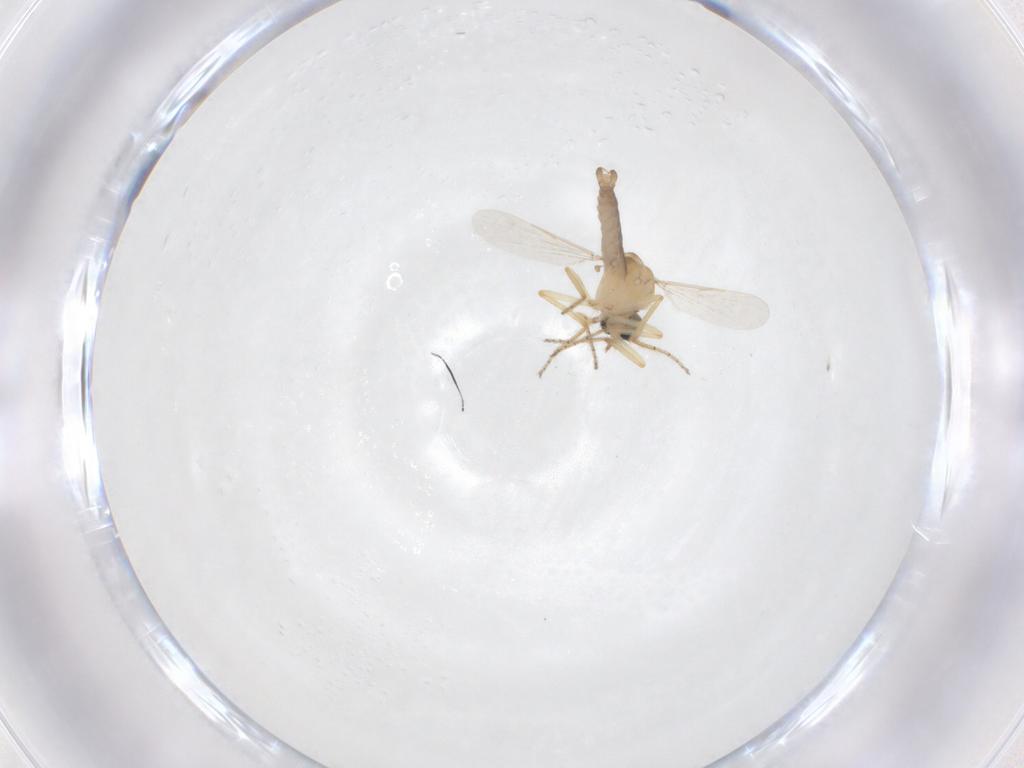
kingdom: Animalia
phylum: Arthropoda
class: Insecta
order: Diptera
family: Ceratopogonidae
